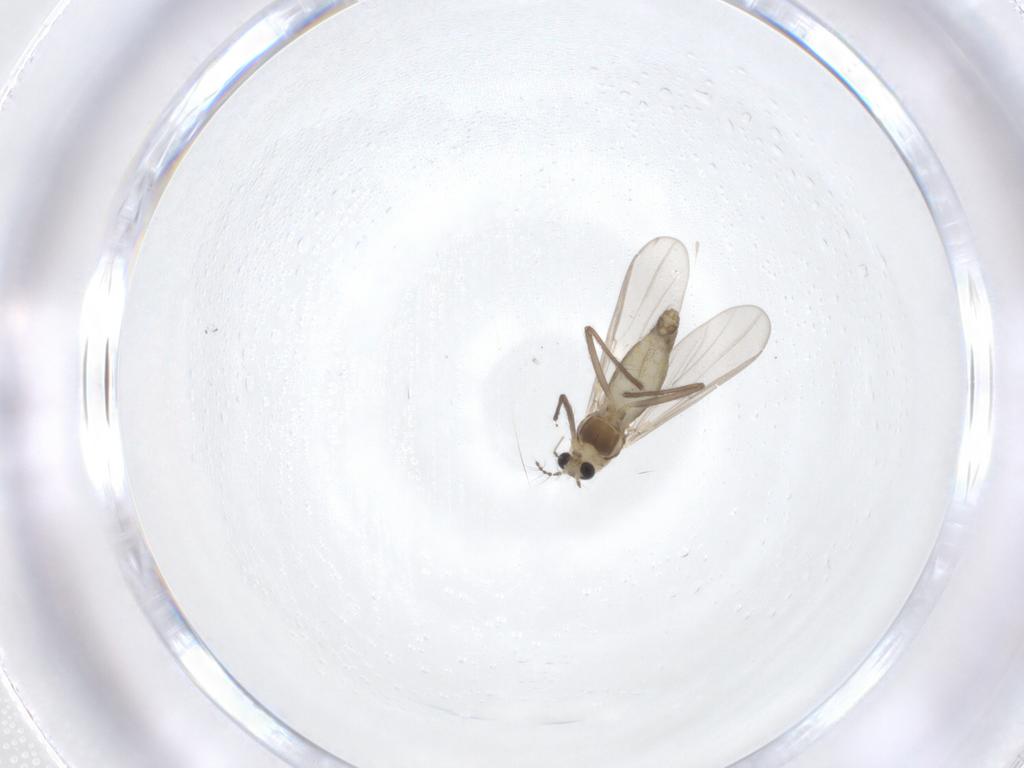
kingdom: Animalia
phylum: Arthropoda
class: Insecta
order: Diptera
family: Chironomidae
